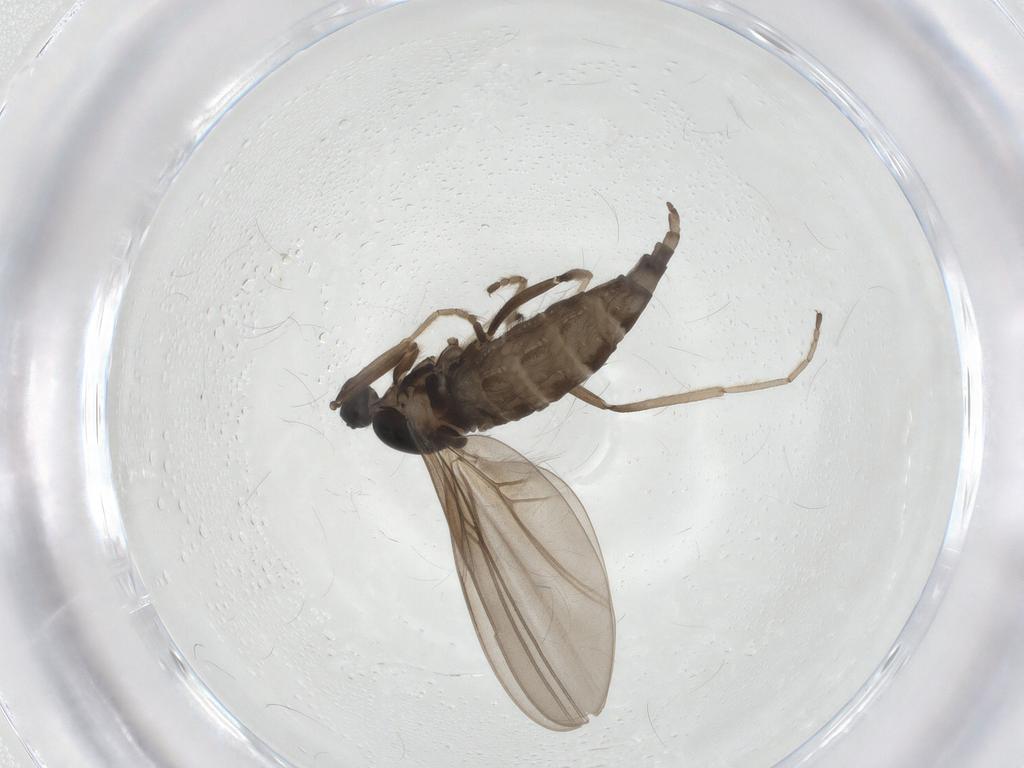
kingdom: Animalia
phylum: Arthropoda
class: Insecta
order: Diptera
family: Cecidomyiidae
